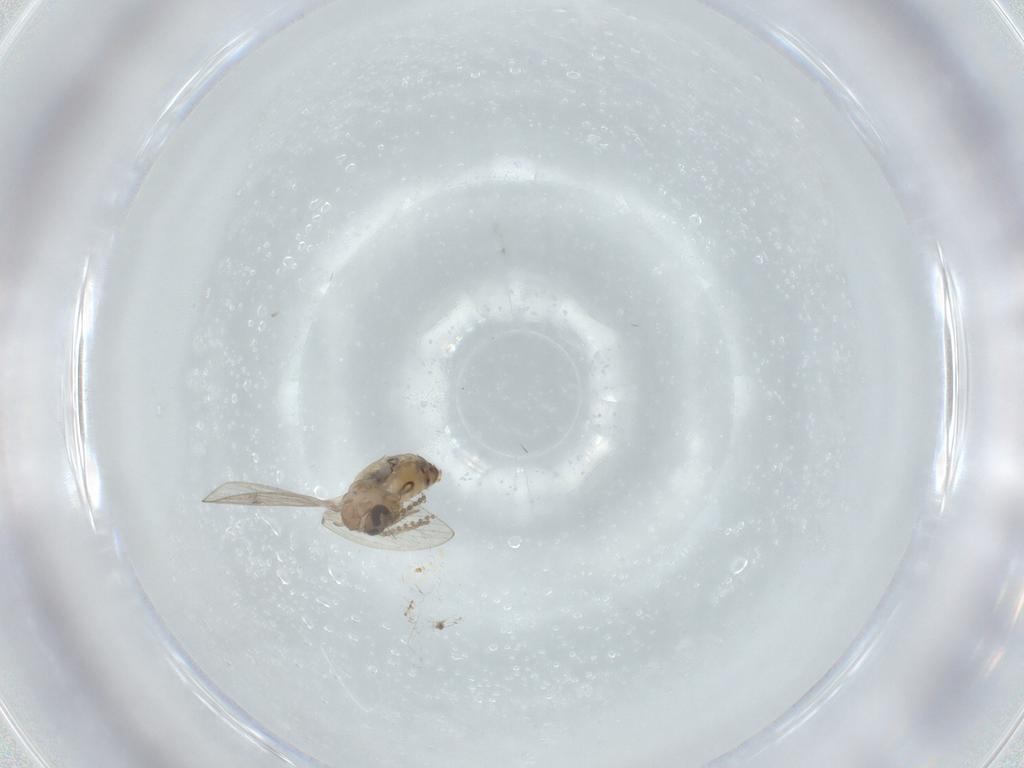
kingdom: Animalia
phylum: Arthropoda
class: Insecta
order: Diptera
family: Psychodidae
